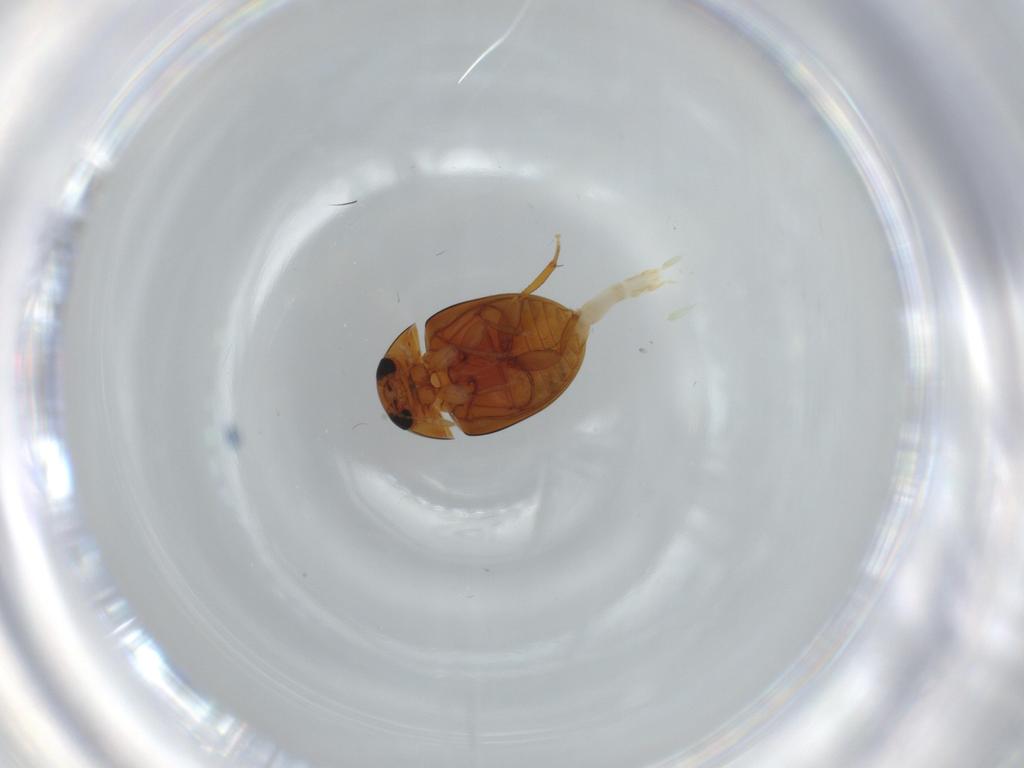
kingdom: Animalia
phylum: Arthropoda
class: Insecta
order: Coleoptera
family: Phalacridae
